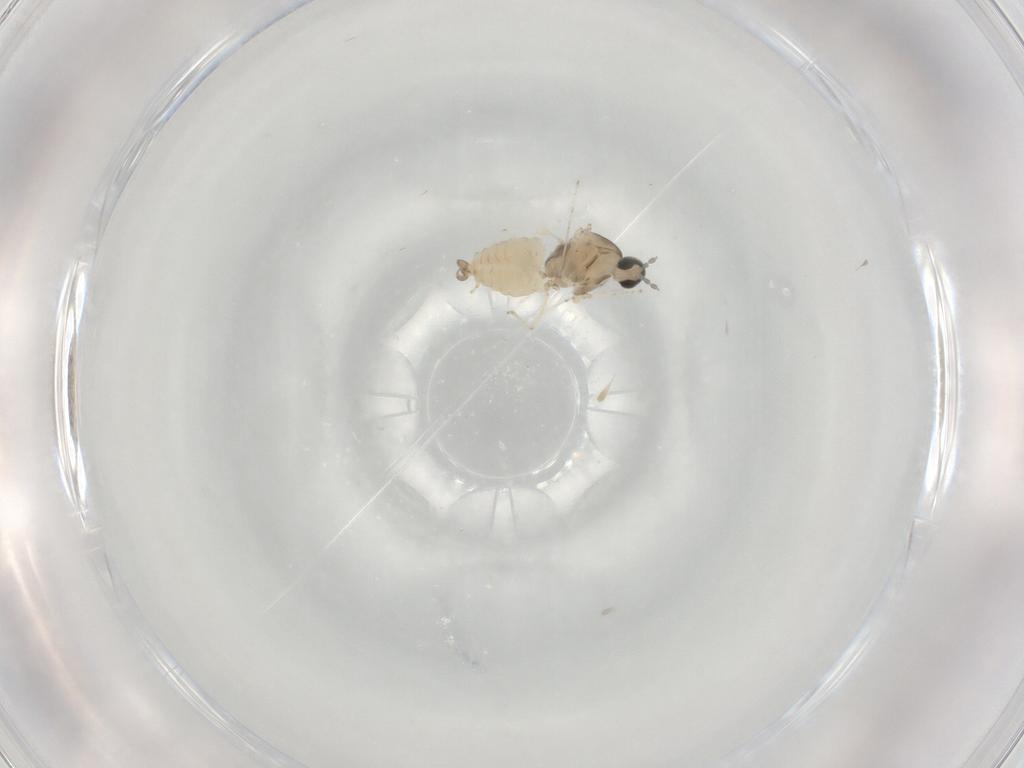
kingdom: Animalia
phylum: Arthropoda
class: Insecta
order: Diptera
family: Cecidomyiidae
